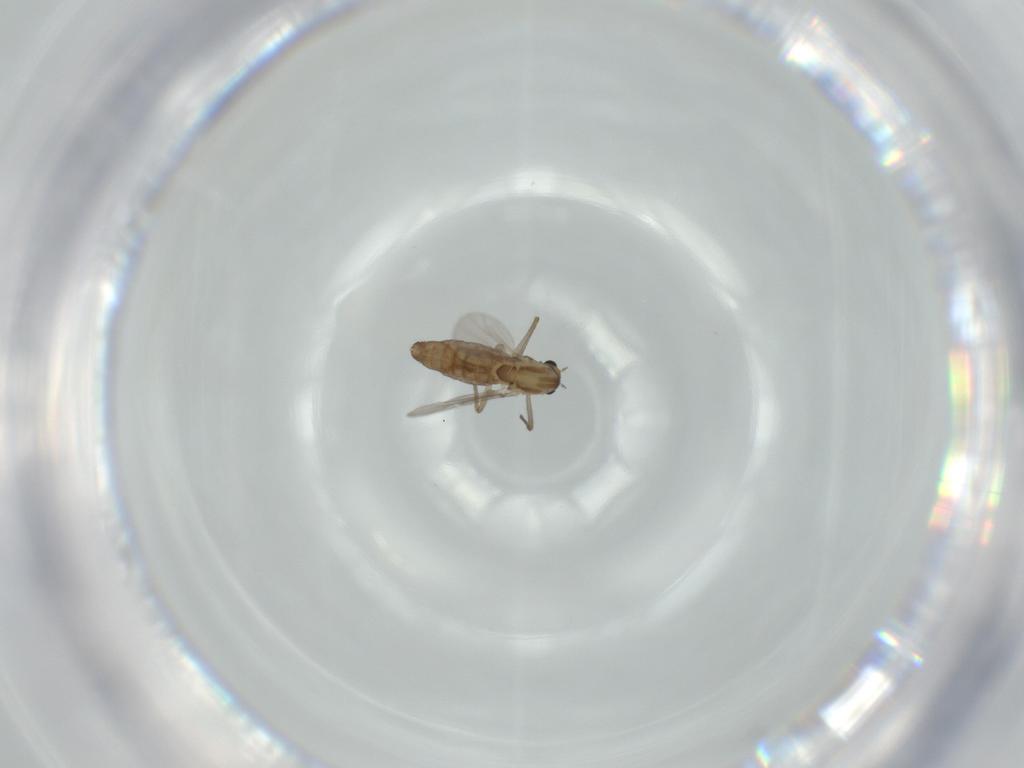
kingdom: Animalia
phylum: Arthropoda
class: Insecta
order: Diptera
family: Chironomidae
